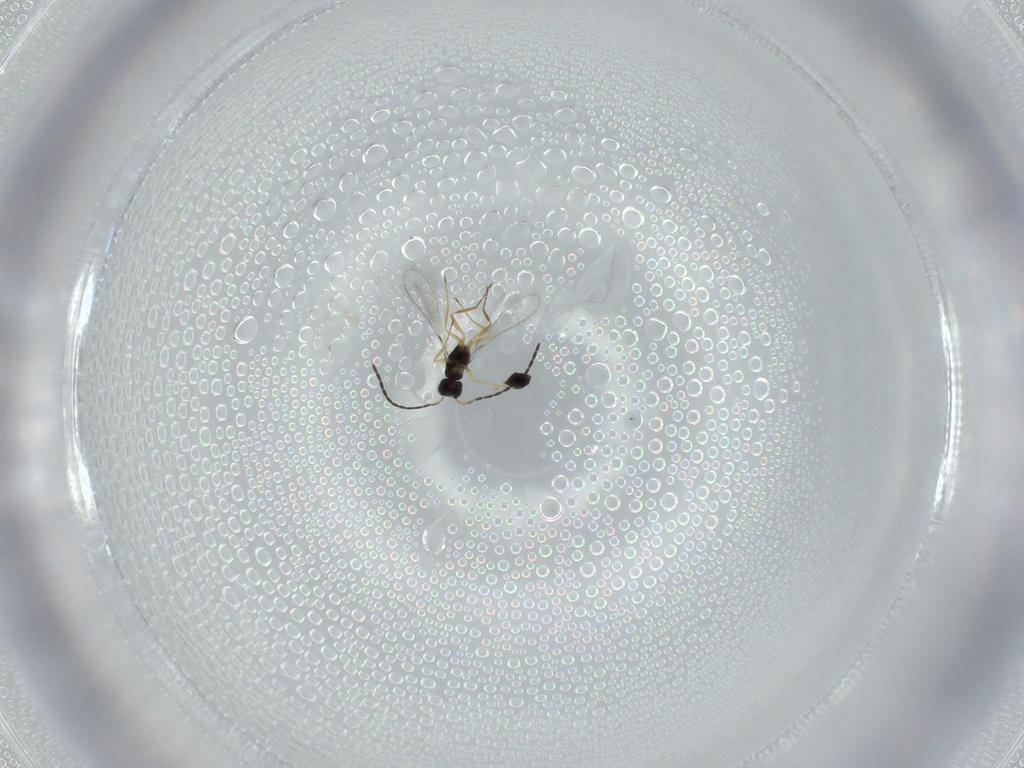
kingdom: Animalia
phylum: Arthropoda
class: Insecta
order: Hymenoptera
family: Mymaridae
